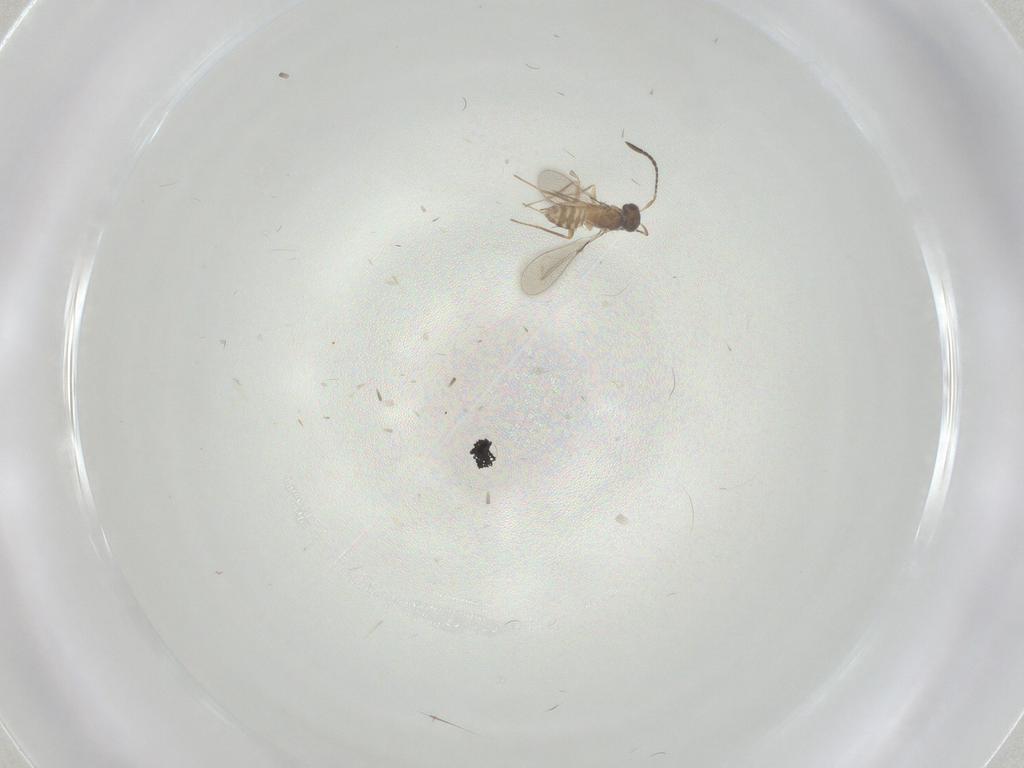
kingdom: Animalia
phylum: Arthropoda
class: Insecta
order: Hymenoptera
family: Mymaridae
